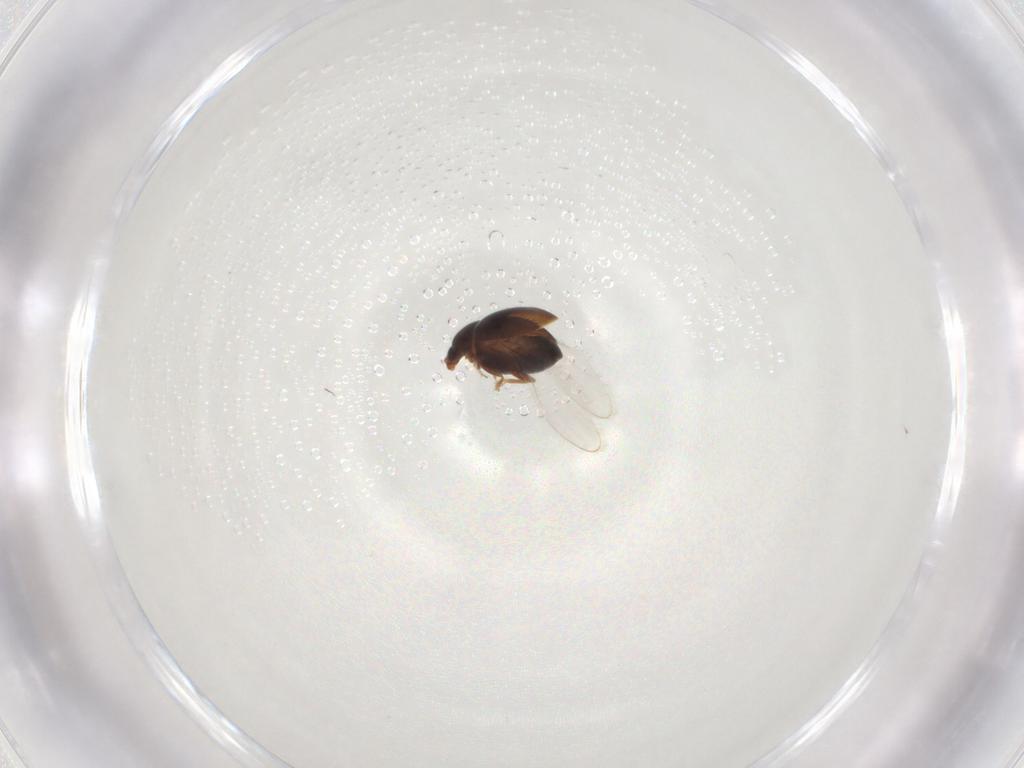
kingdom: Animalia
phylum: Arthropoda
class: Insecta
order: Coleoptera
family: Corylophidae
